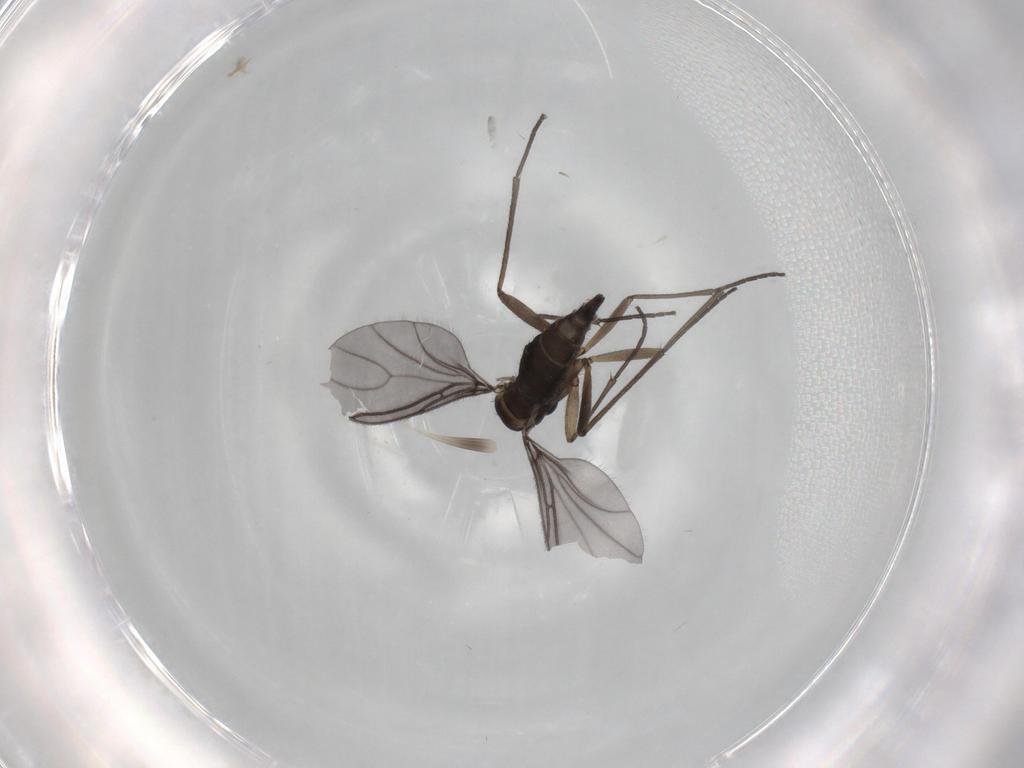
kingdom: Animalia
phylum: Arthropoda
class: Insecta
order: Diptera
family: Sciaridae
